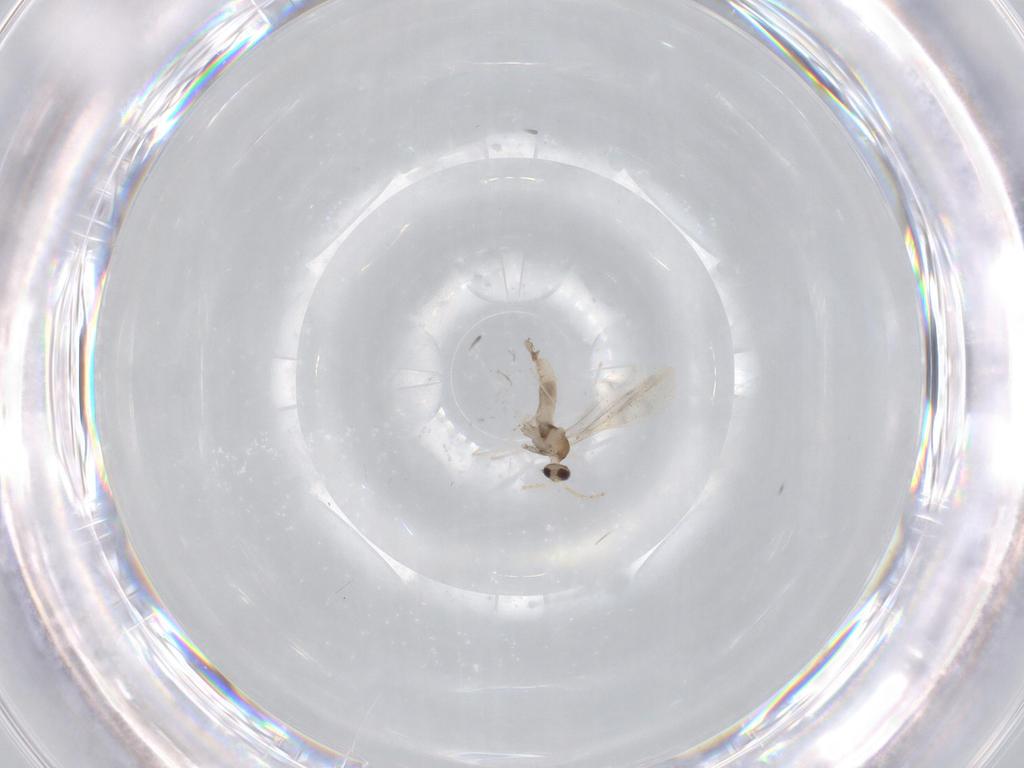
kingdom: Animalia
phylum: Arthropoda
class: Insecta
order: Diptera
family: Cecidomyiidae
